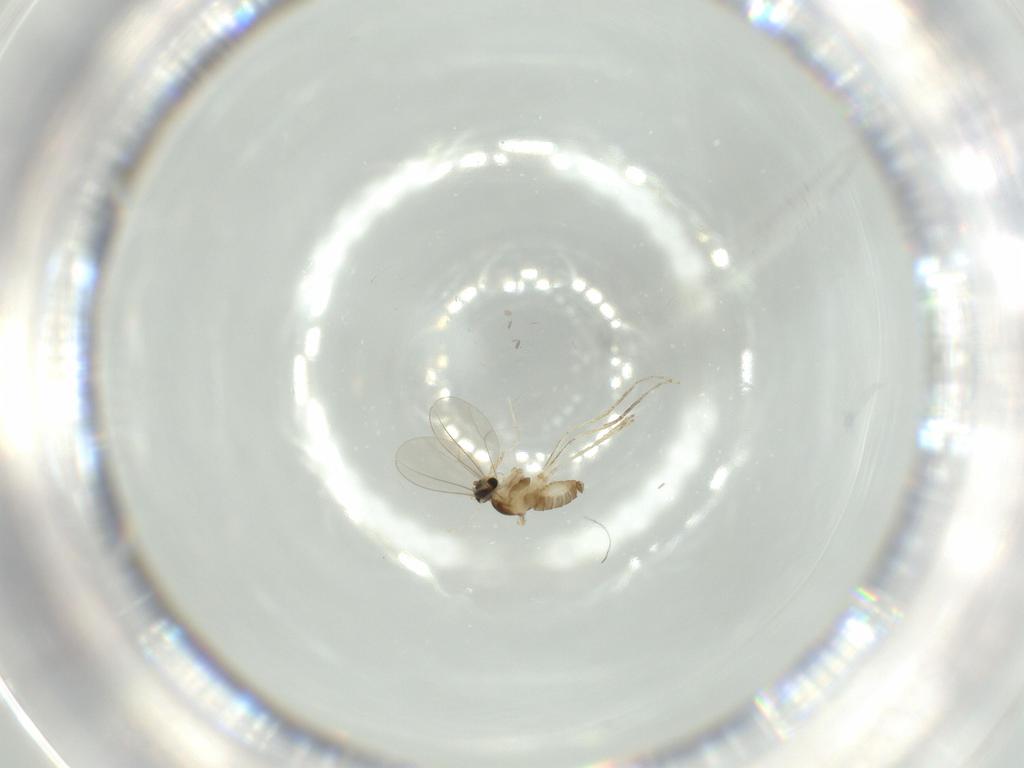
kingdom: Animalia
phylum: Arthropoda
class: Insecta
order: Diptera
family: Cecidomyiidae
